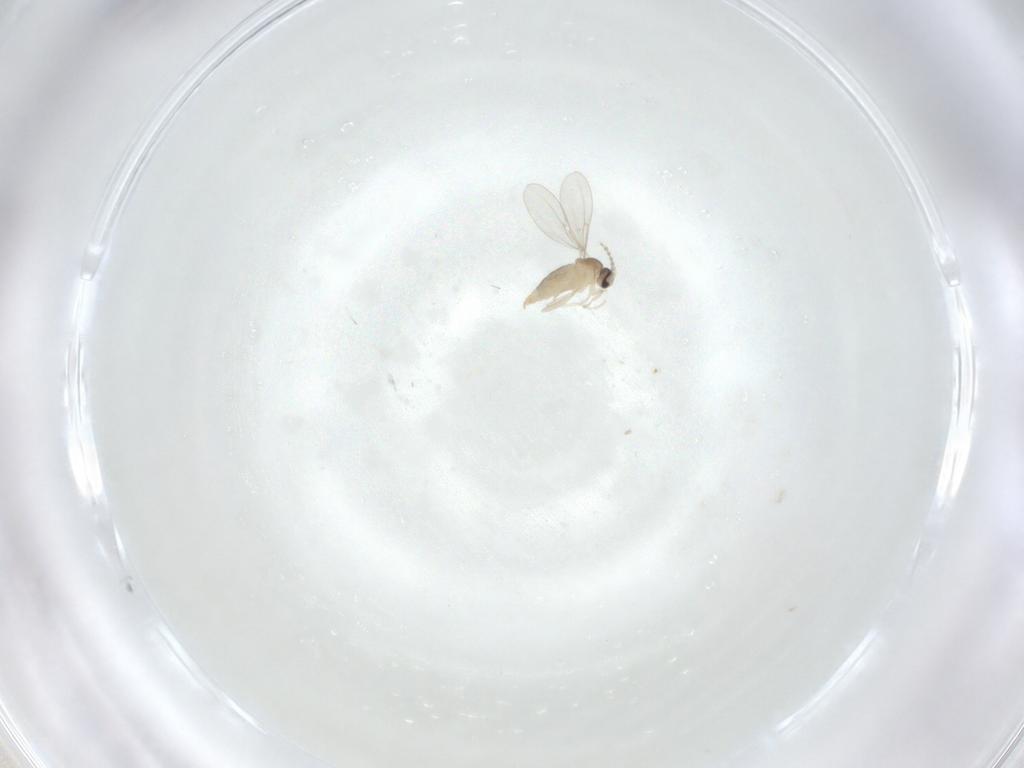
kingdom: Animalia
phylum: Arthropoda
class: Insecta
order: Diptera
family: Cecidomyiidae
